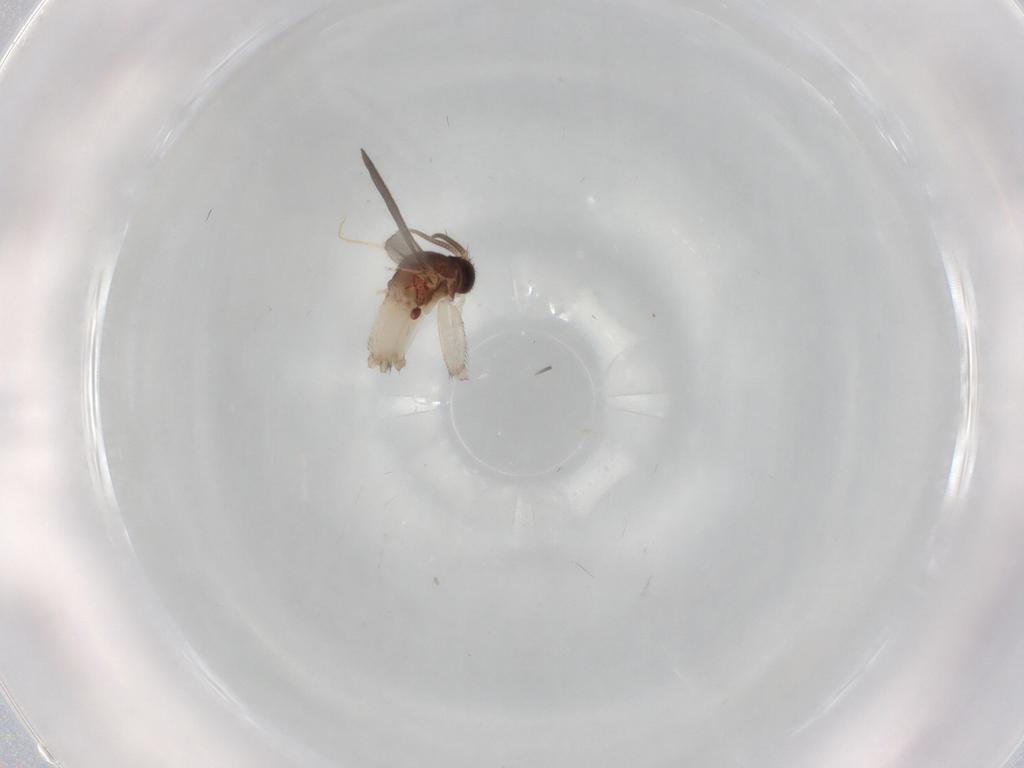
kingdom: Animalia
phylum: Arthropoda
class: Insecta
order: Diptera
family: Mycetophilidae
